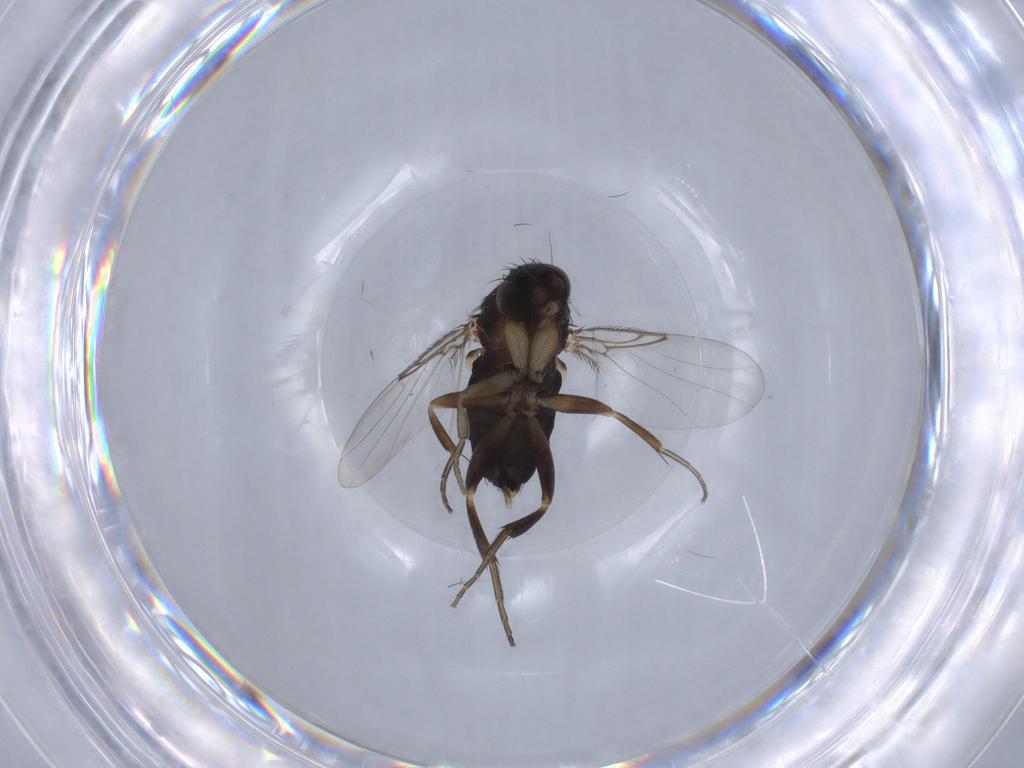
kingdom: Animalia
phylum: Arthropoda
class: Insecta
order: Diptera
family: Phoridae
